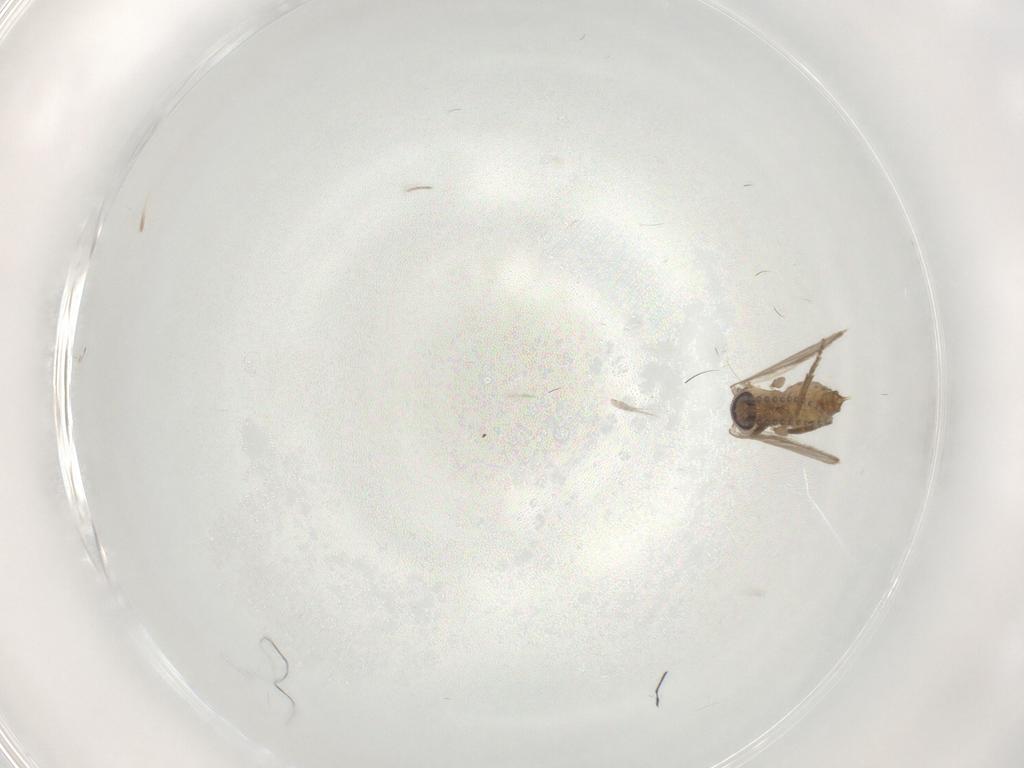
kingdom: Animalia
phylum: Arthropoda
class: Insecta
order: Diptera
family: Psychodidae
